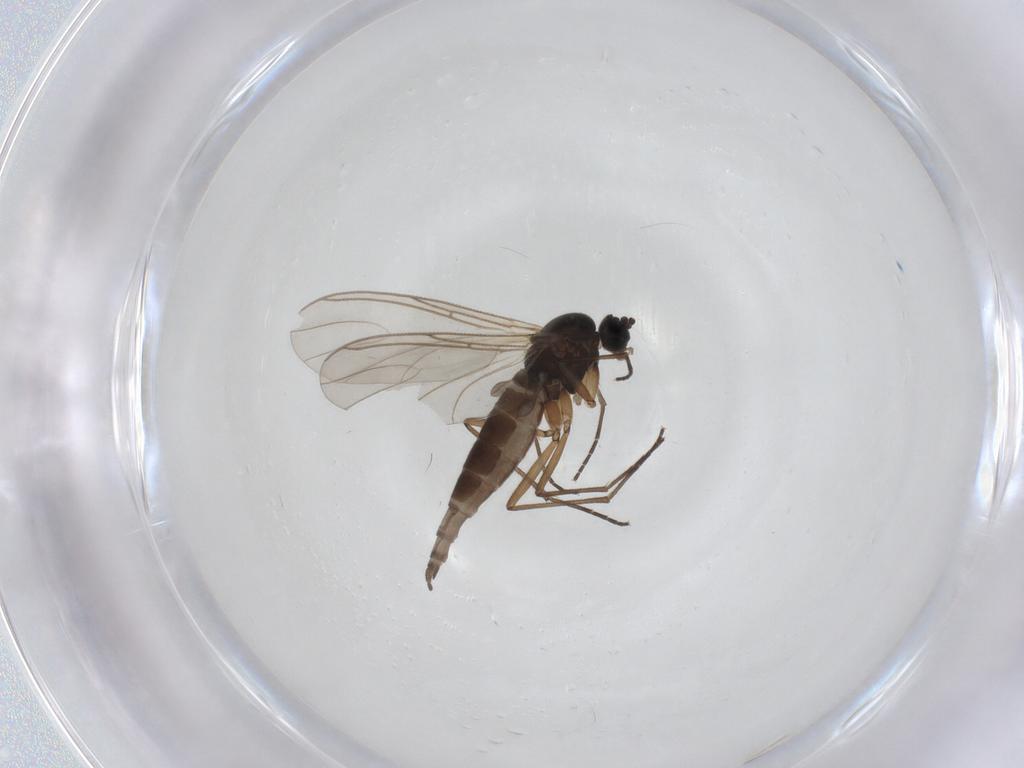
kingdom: Animalia
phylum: Arthropoda
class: Insecta
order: Diptera
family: Sciaridae
